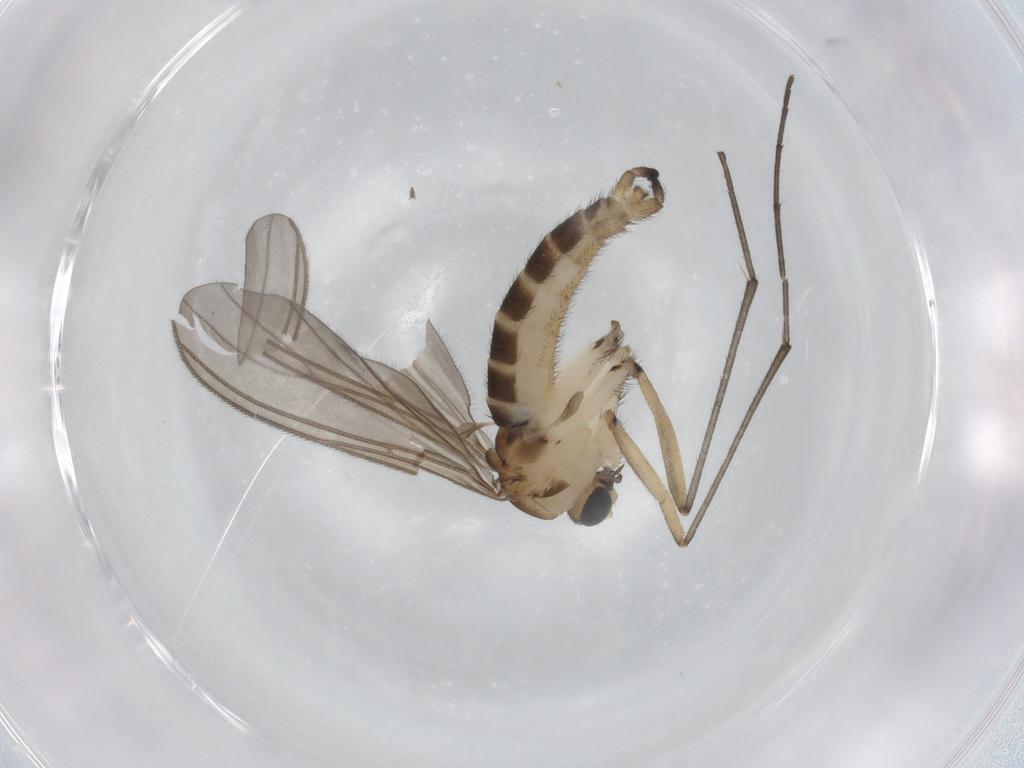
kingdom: Animalia
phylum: Arthropoda
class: Insecta
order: Diptera
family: Sciaridae
